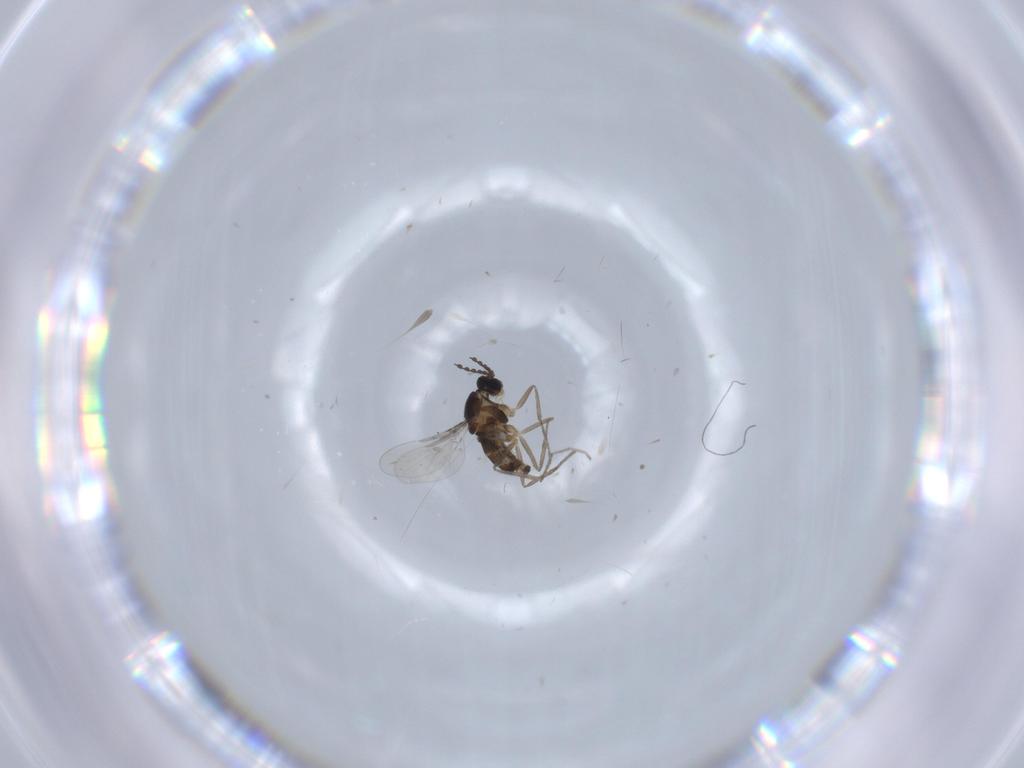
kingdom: Animalia
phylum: Arthropoda
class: Insecta
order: Diptera
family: Cecidomyiidae
